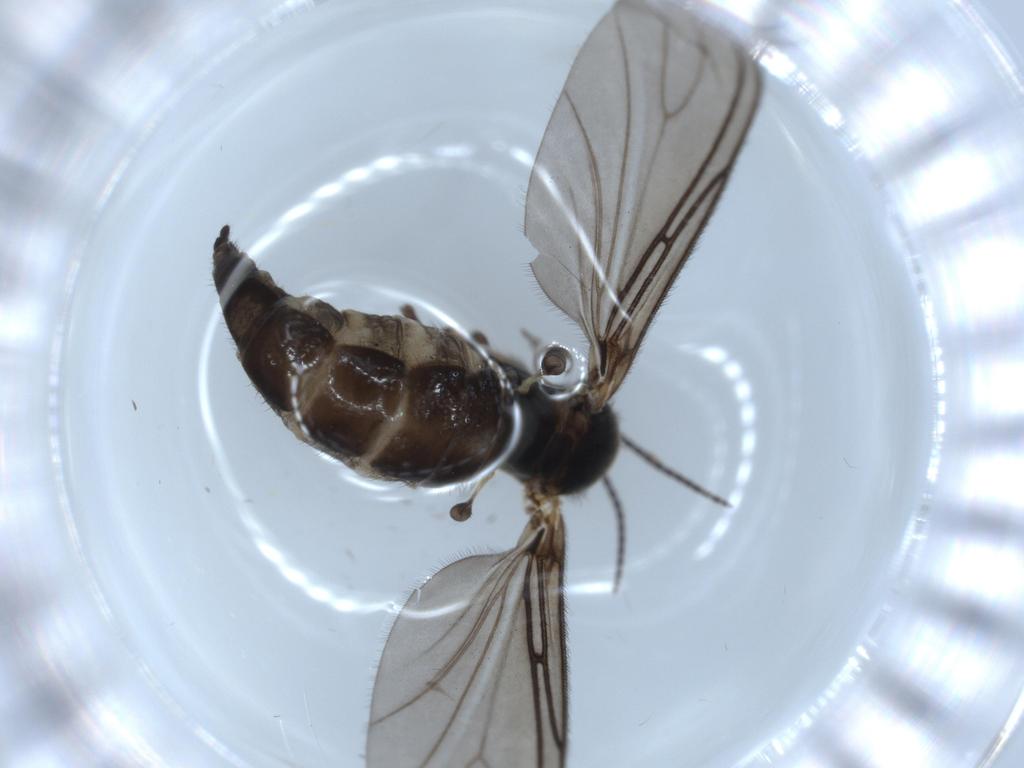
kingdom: Animalia
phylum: Arthropoda
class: Insecta
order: Diptera
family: Sciaridae
